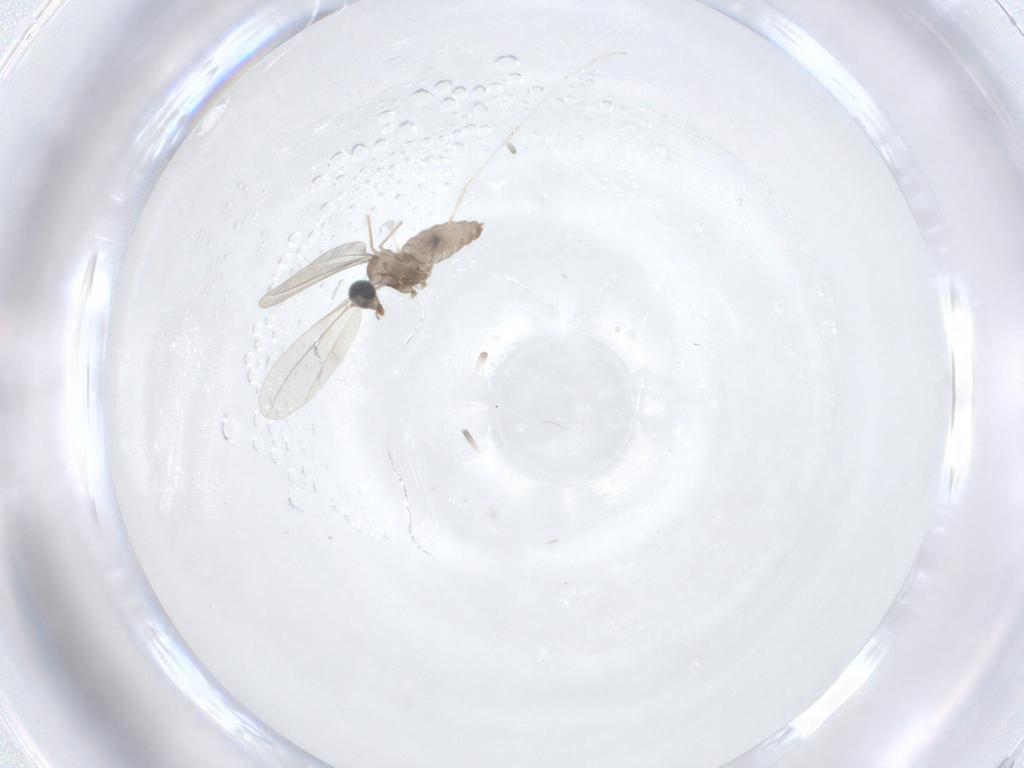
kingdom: Animalia
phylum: Arthropoda
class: Insecta
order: Diptera
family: Cecidomyiidae
